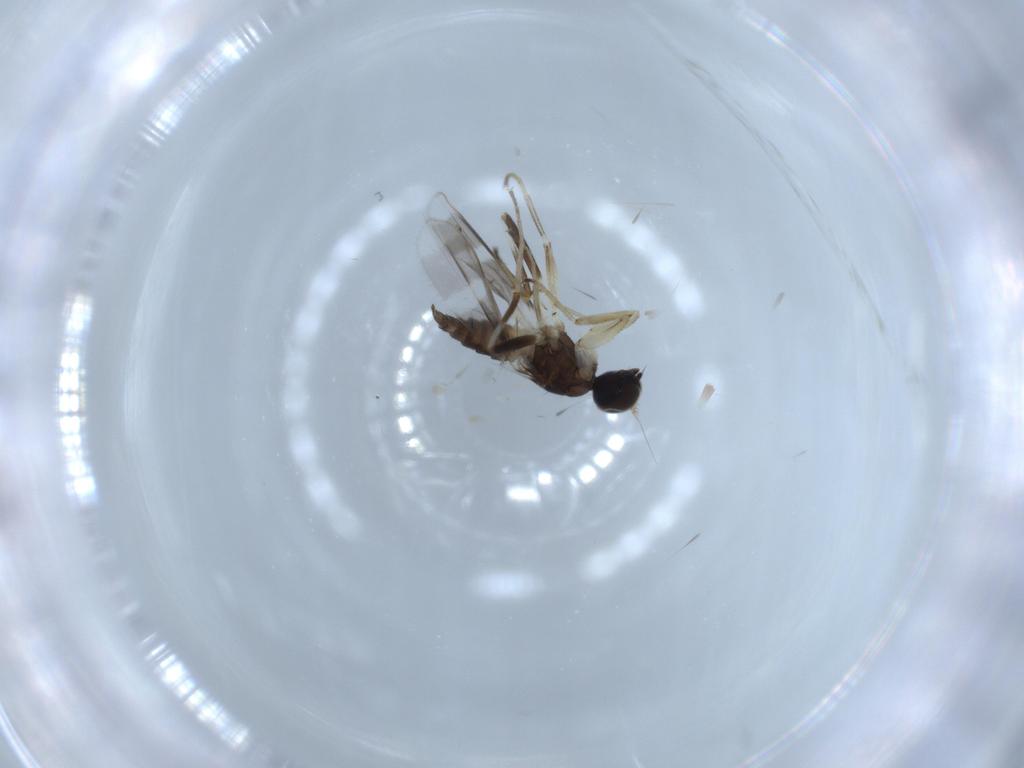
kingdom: Animalia
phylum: Arthropoda
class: Insecta
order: Diptera
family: Hybotidae
